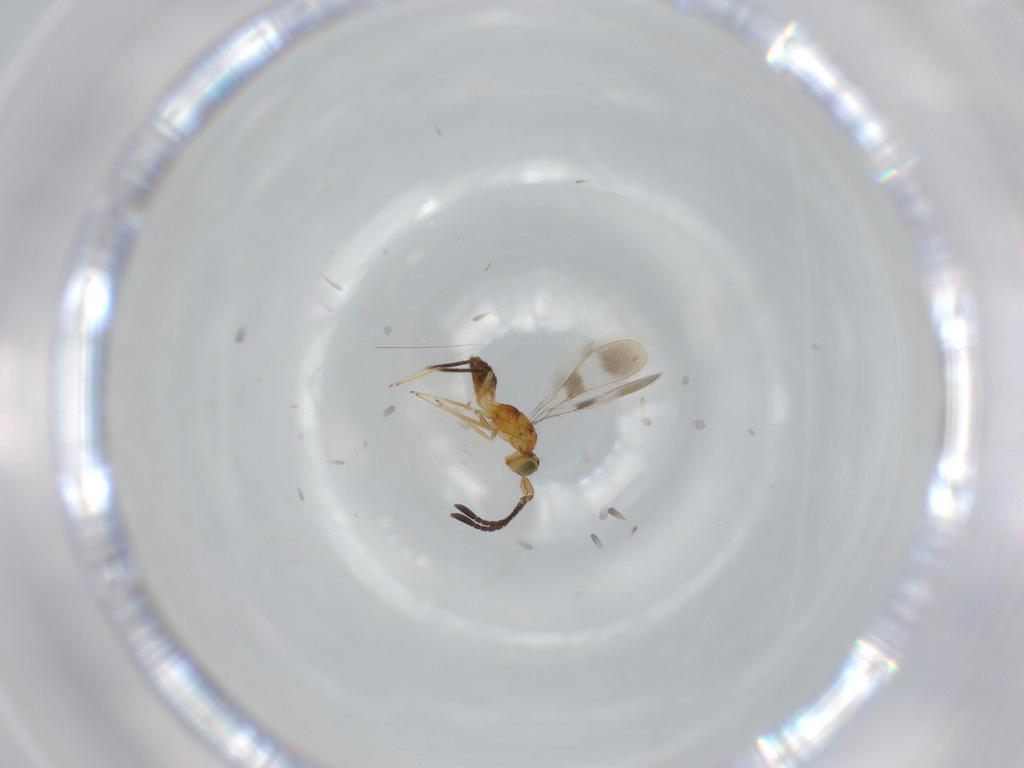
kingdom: Animalia
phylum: Arthropoda
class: Insecta
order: Hymenoptera
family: Mymaridae
